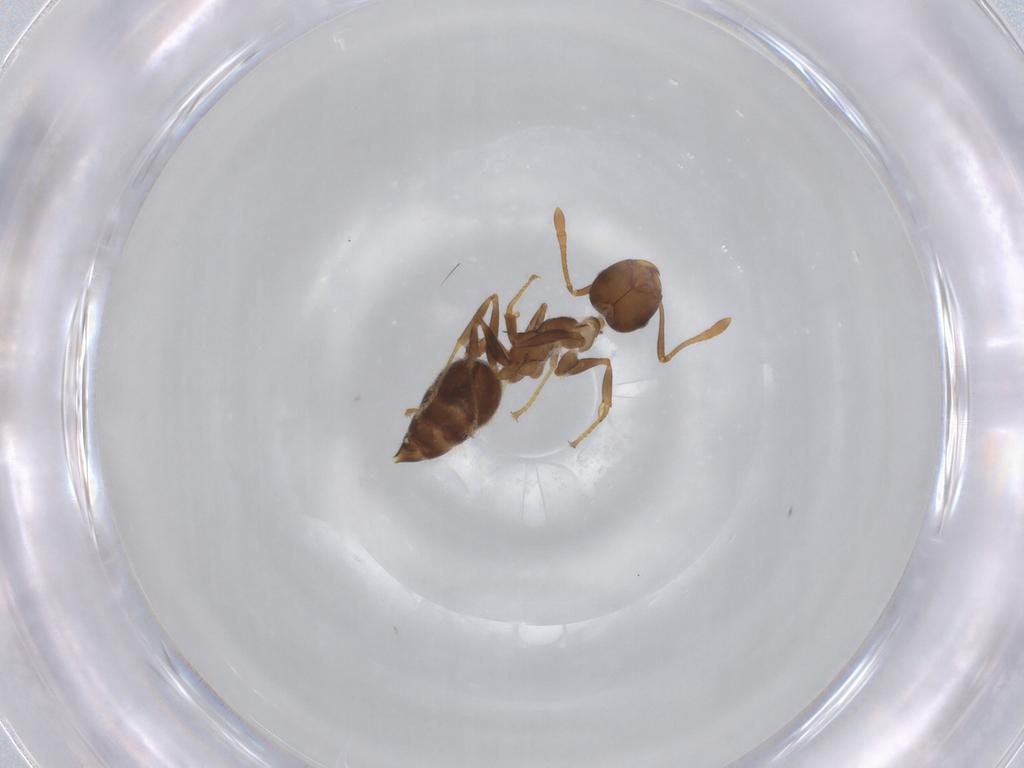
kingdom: Animalia
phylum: Arthropoda
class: Insecta
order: Hymenoptera
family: Formicidae
